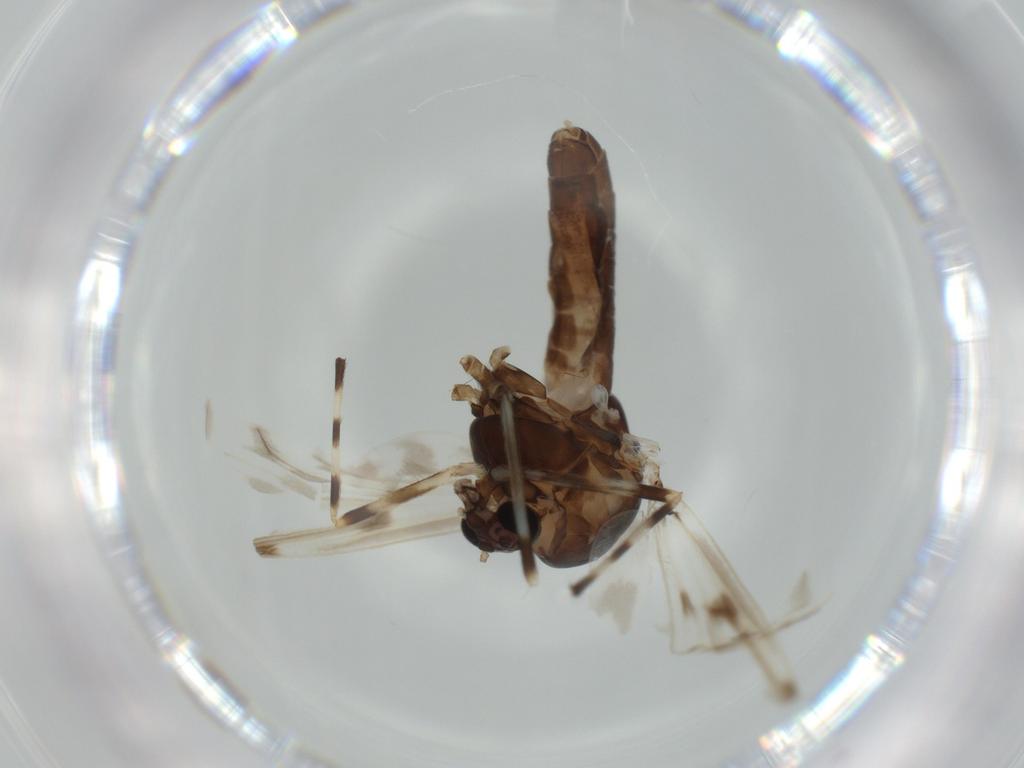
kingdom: Animalia
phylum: Arthropoda
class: Insecta
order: Diptera
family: Chironomidae
